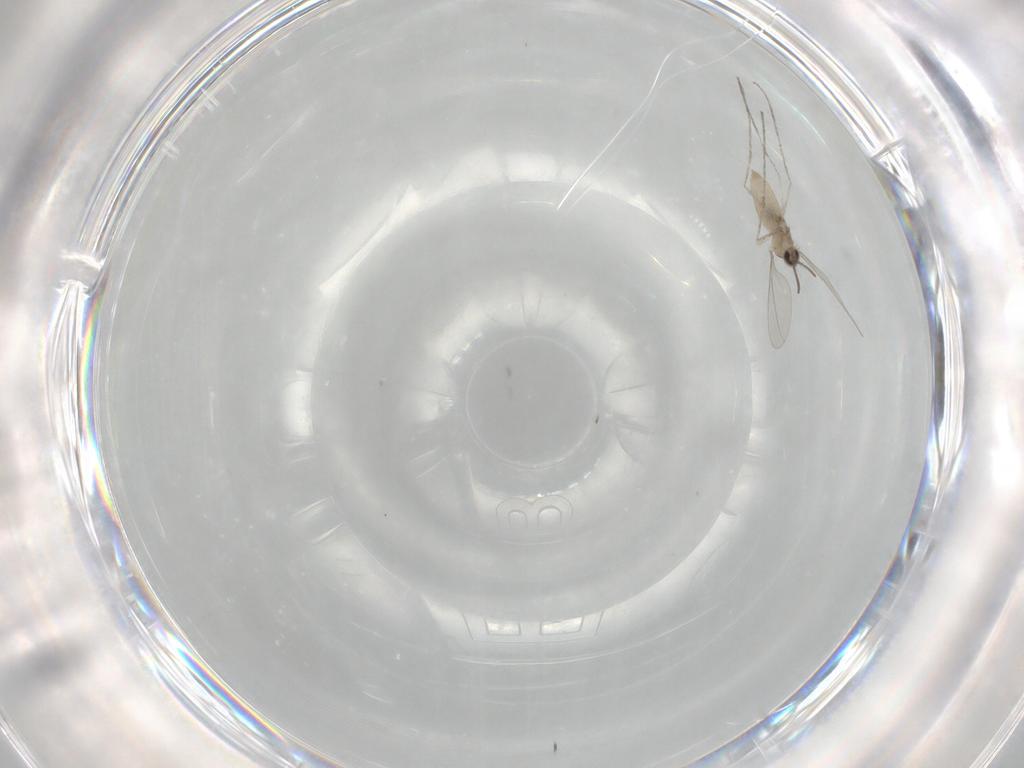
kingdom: Animalia
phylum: Arthropoda
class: Insecta
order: Diptera
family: Cecidomyiidae
